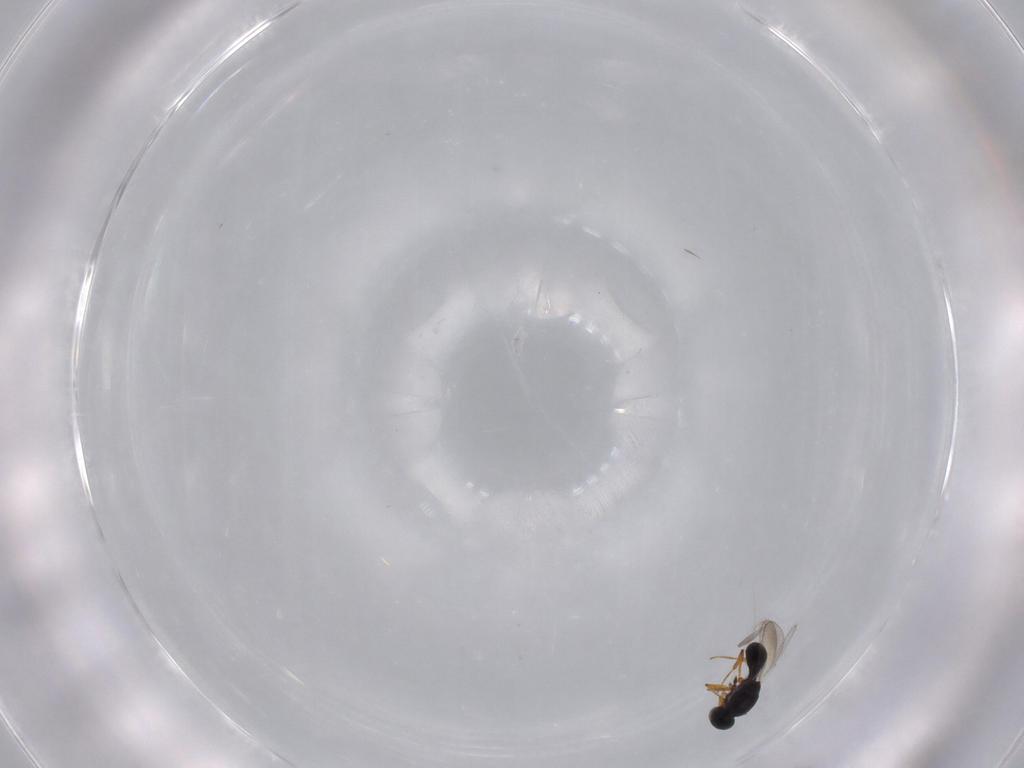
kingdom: Animalia
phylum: Arthropoda
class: Insecta
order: Hymenoptera
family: Platygastridae
